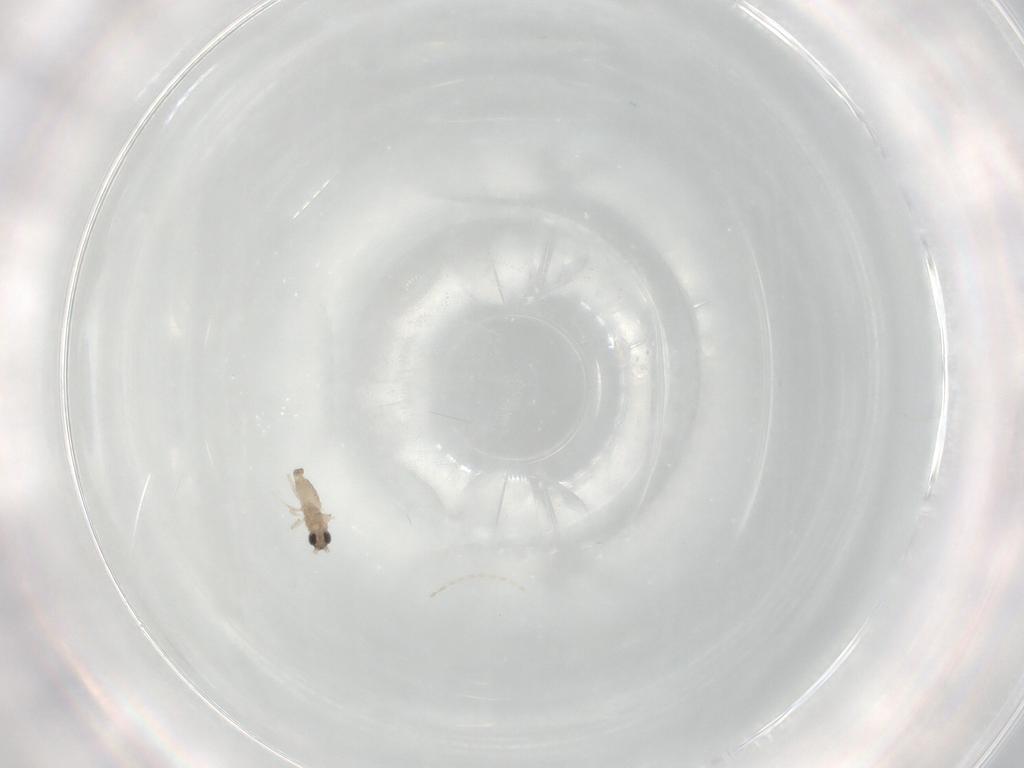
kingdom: Animalia
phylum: Arthropoda
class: Insecta
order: Diptera
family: Cecidomyiidae
